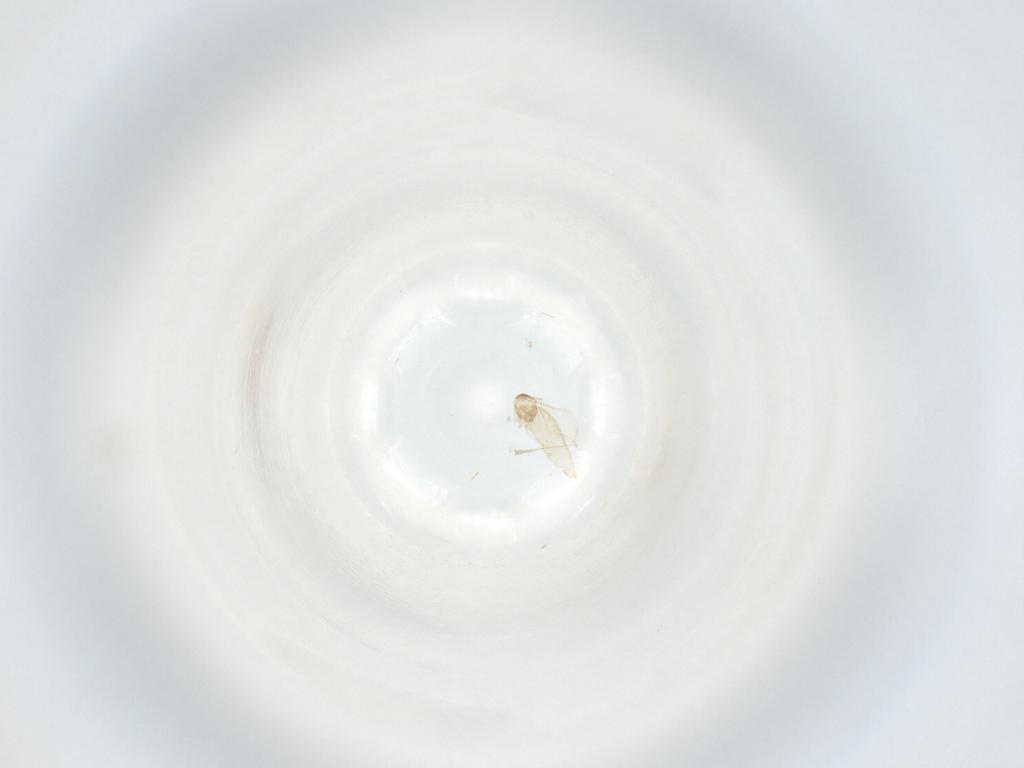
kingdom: Animalia
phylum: Arthropoda
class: Insecta
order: Diptera
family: Cecidomyiidae
